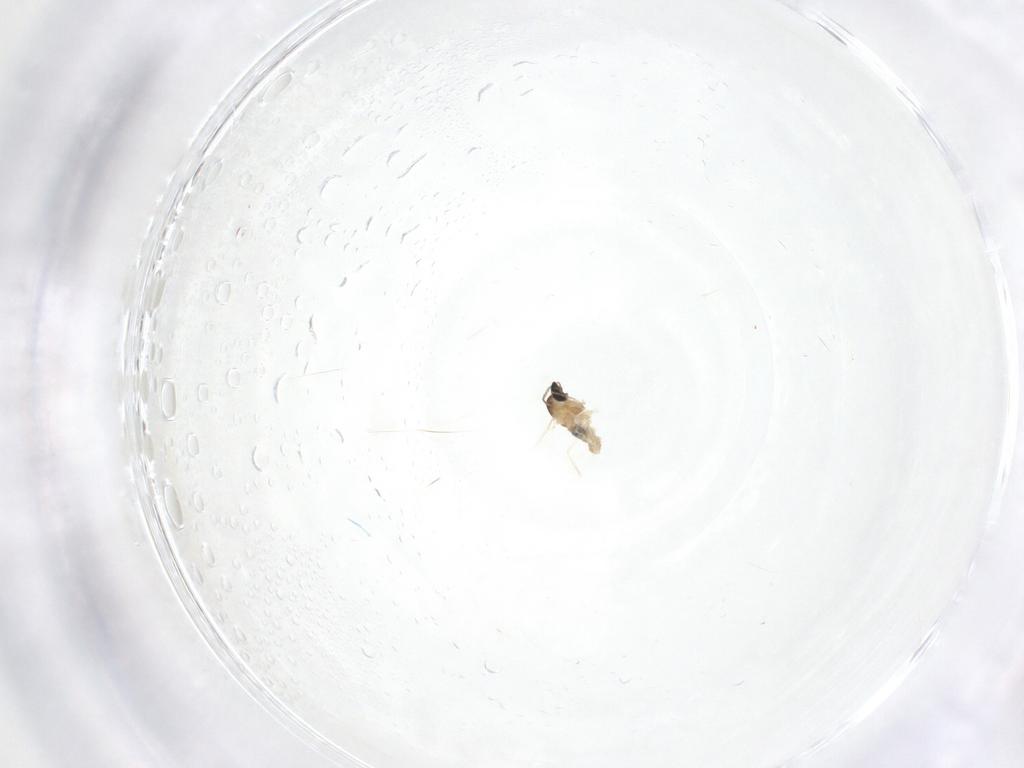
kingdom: Animalia
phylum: Arthropoda
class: Insecta
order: Diptera
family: Cecidomyiidae
